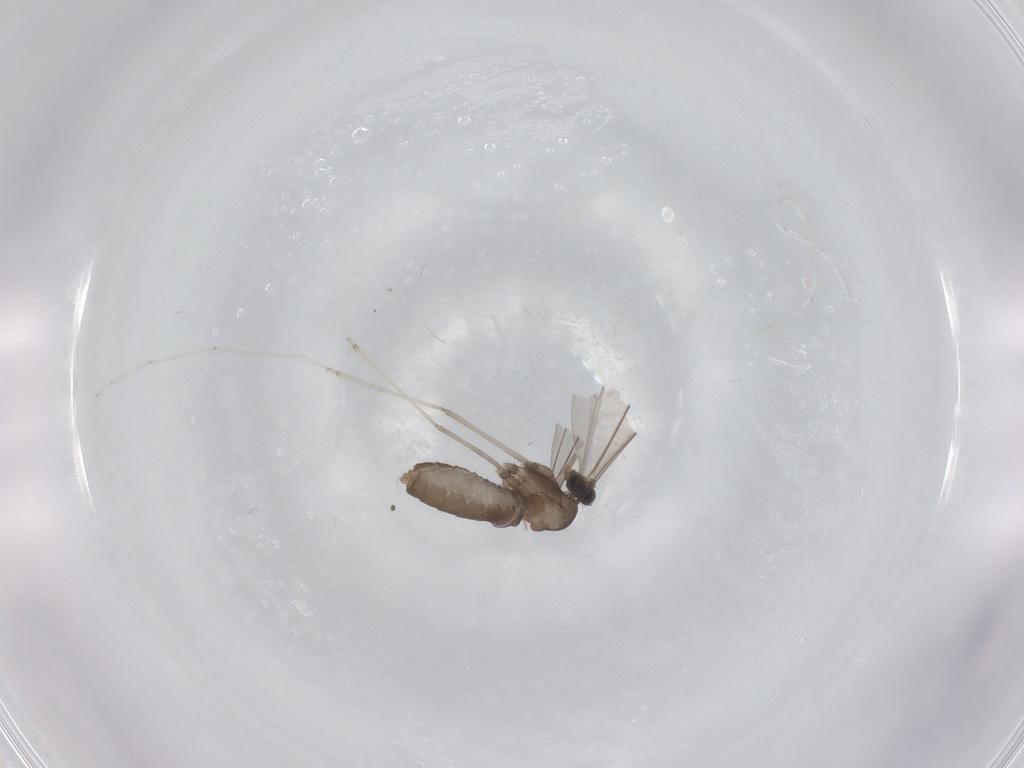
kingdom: Animalia
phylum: Arthropoda
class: Insecta
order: Diptera
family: Cecidomyiidae
